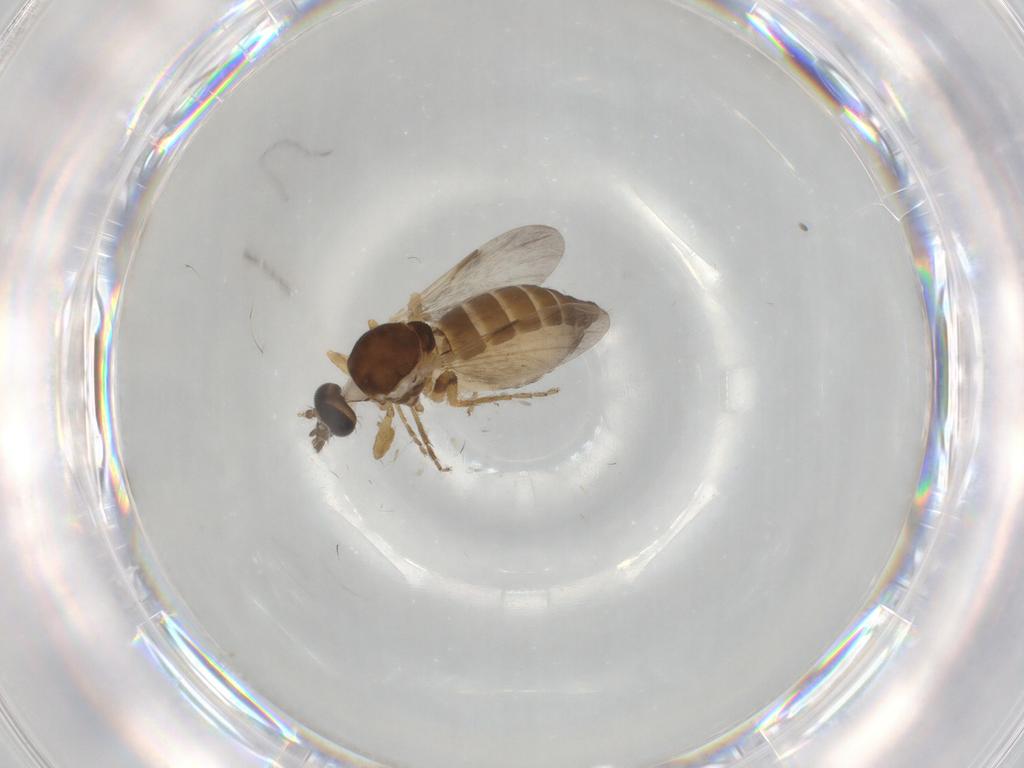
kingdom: Animalia
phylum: Arthropoda
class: Insecta
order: Diptera
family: Ceratopogonidae
